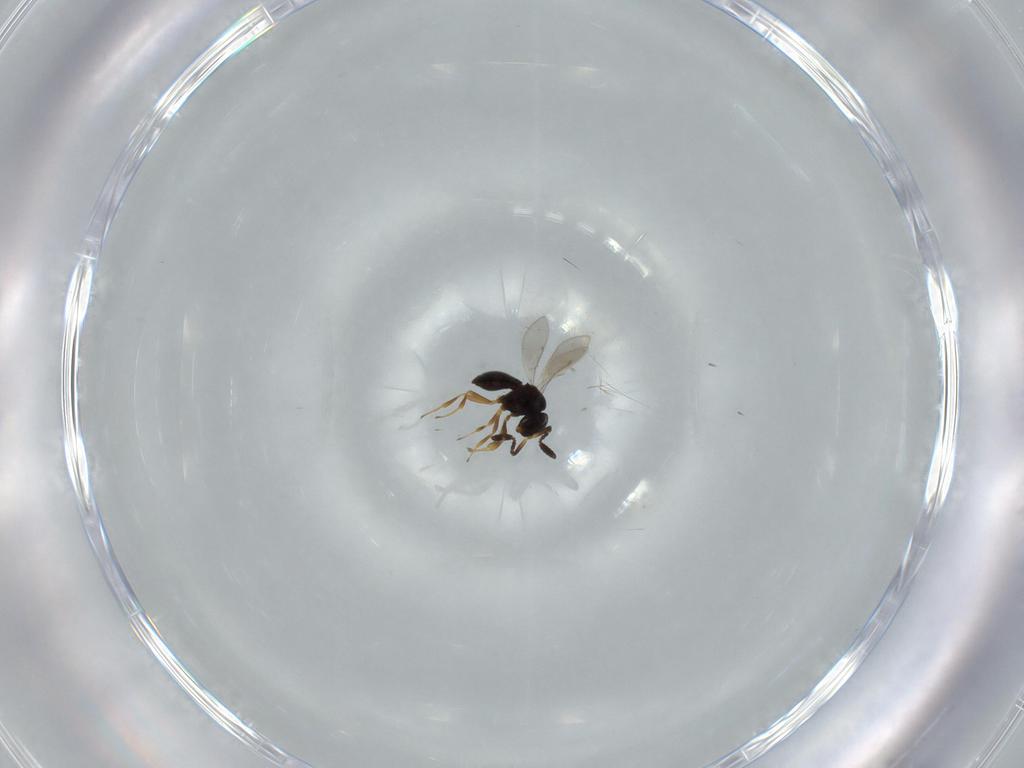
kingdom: Animalia
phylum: Arthropoda
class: Insecta
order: Hymenoptera
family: Scelionidae
